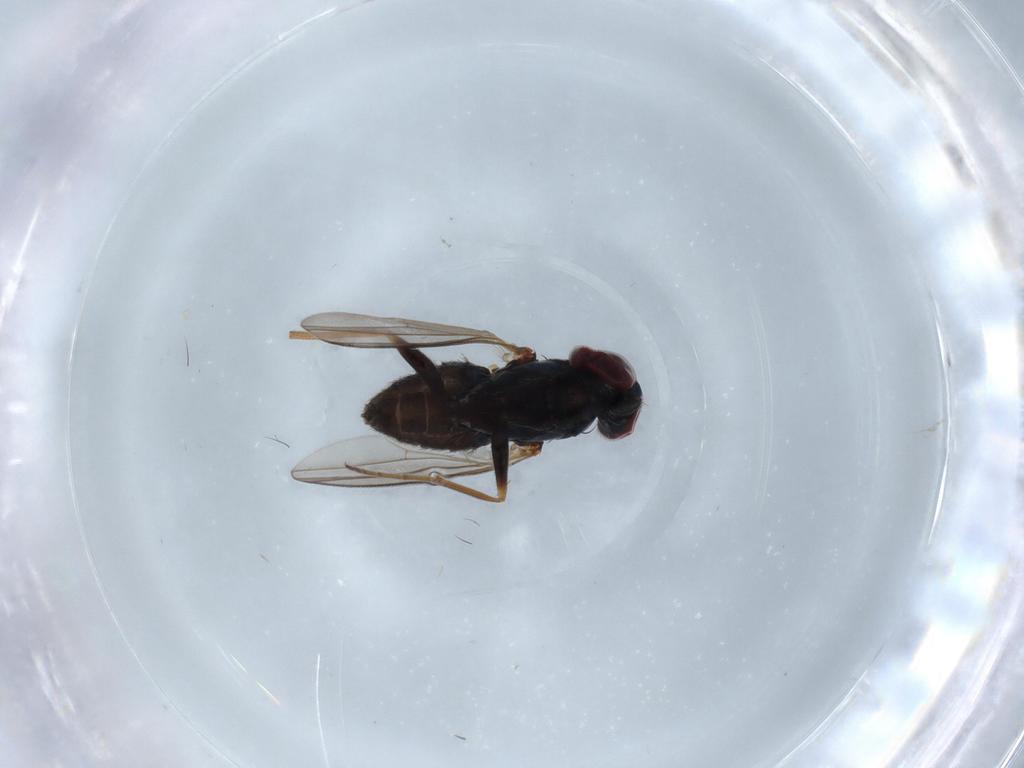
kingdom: Animalia
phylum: Arthropoda
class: Insecta
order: Diptera
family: Dolichopodidae
